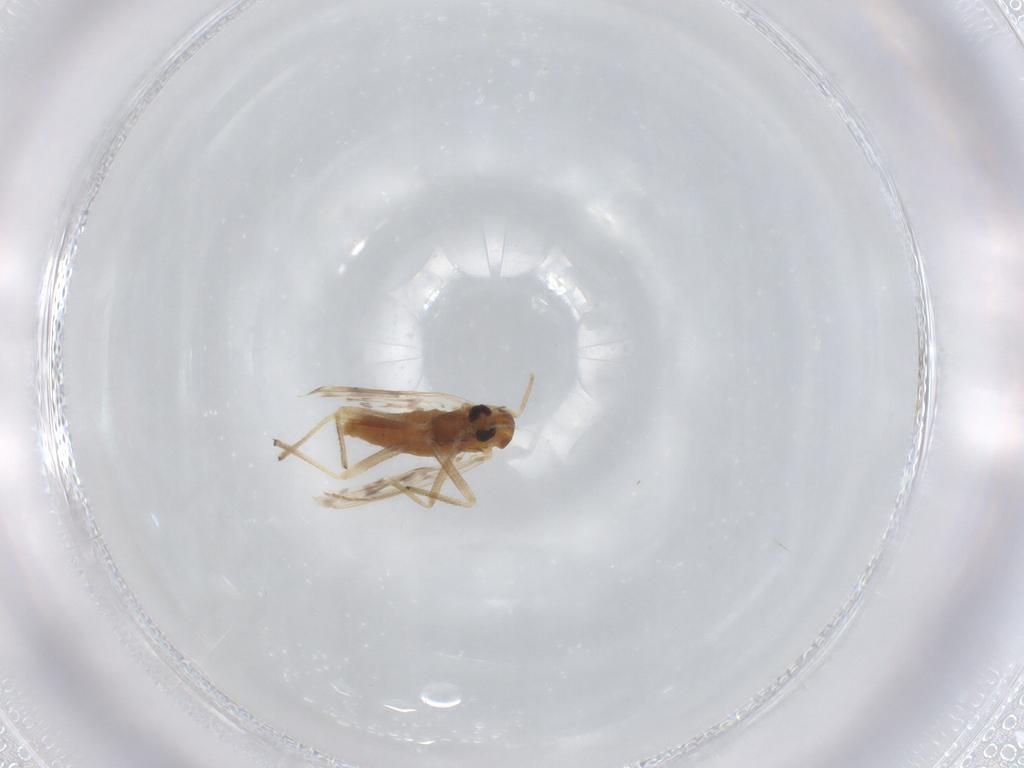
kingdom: Animalia
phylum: Arthropoda
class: Insecta
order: Diptera
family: Chironomidae
